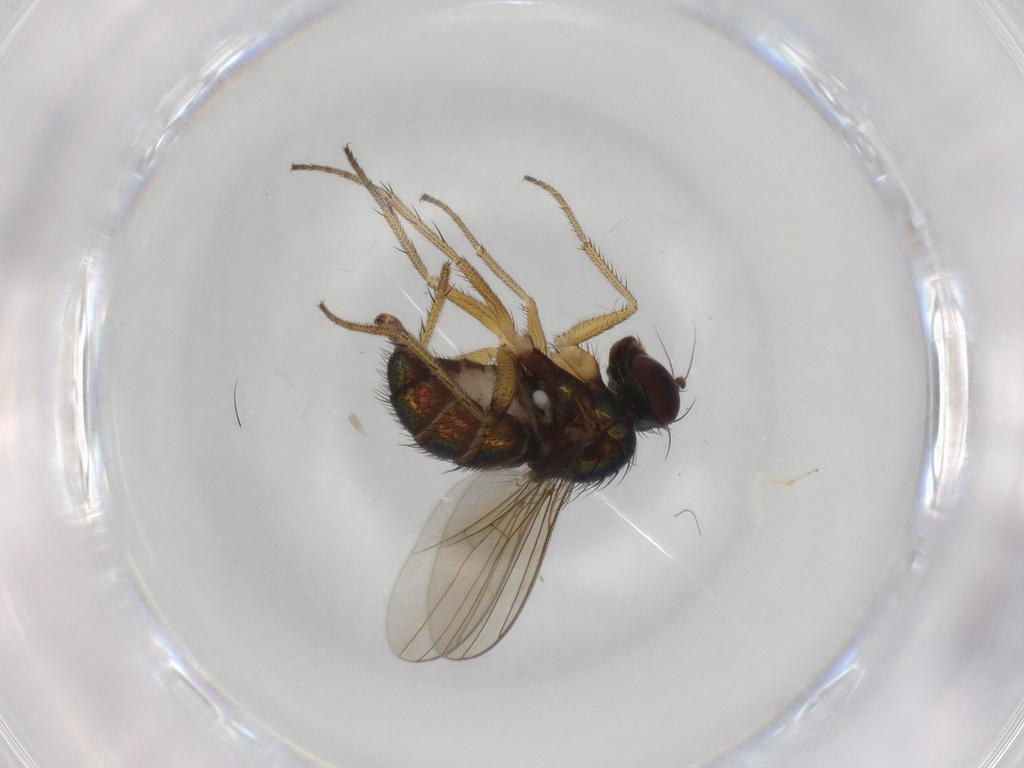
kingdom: Animalia
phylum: Arthropoda
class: Insecta
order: Diptera
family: Dolichopodidae
